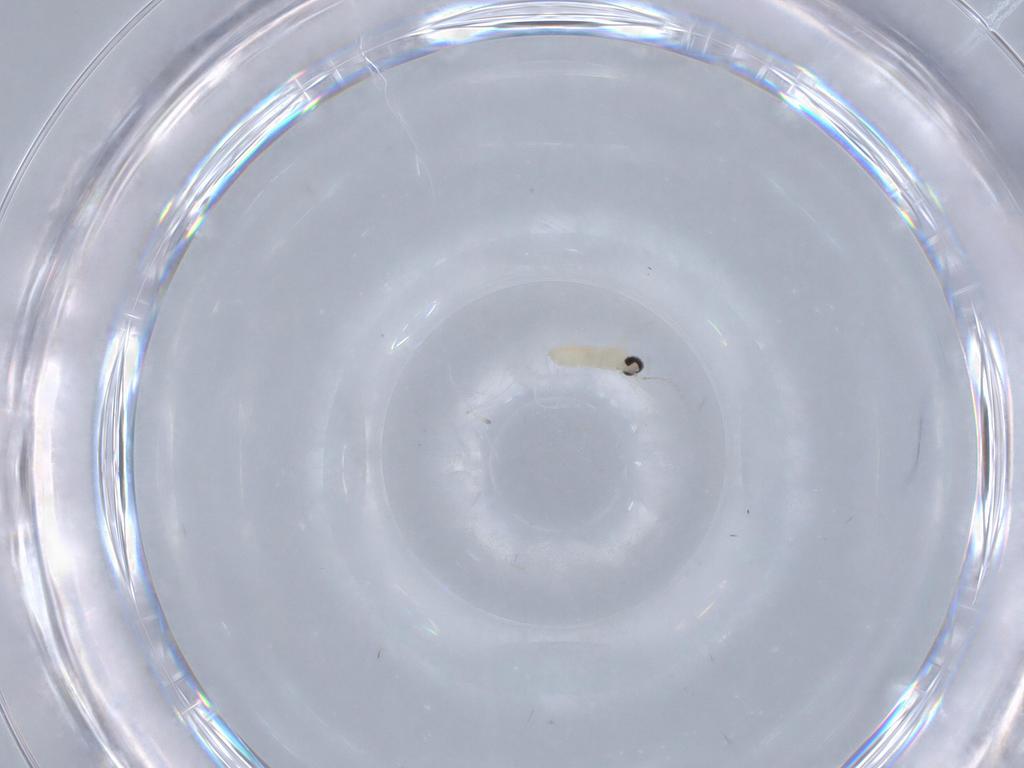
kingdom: Animalia
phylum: Arthropoda
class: Insecta
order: Diptera
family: Cecidomyiidae
